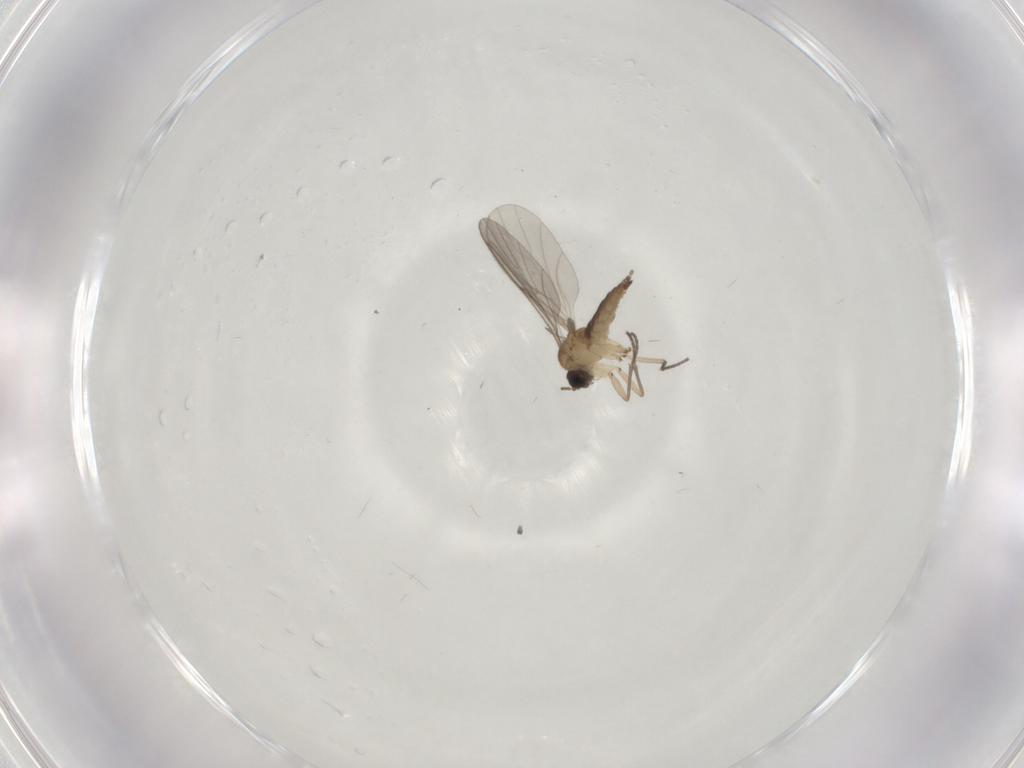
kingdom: Animalia
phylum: Arthropoda
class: Insecta
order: Diptera
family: Sciaridae
